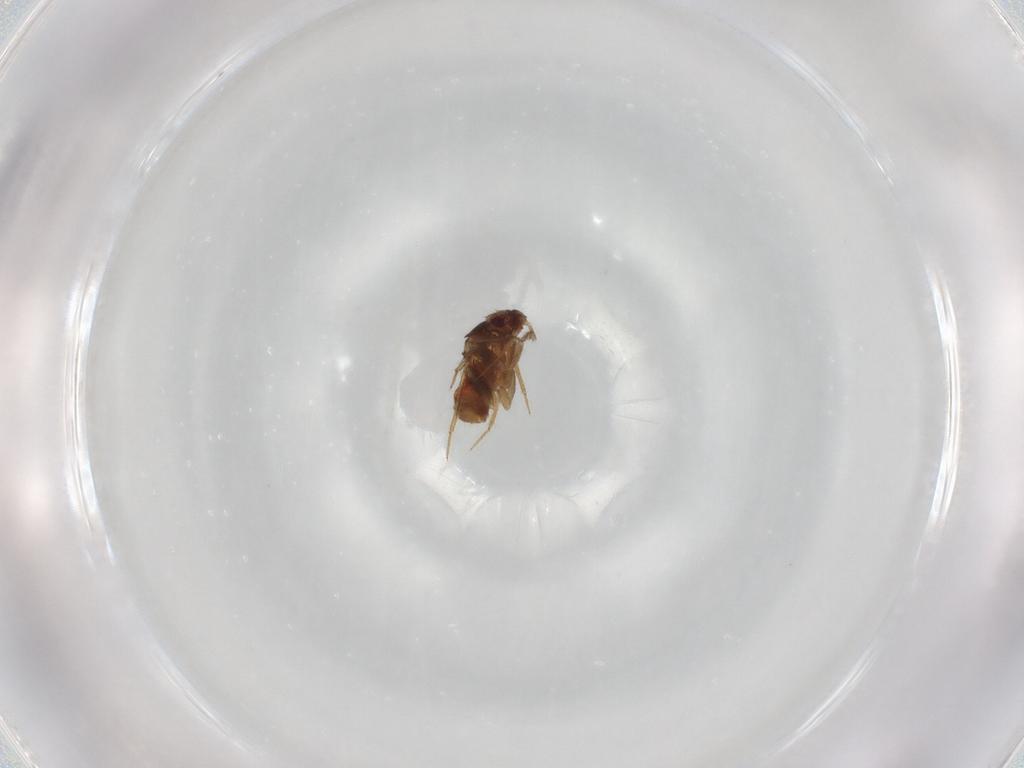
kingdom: Animalia
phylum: Arthropoda
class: Insecta
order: Hemiptera
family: Ceratocombidae
